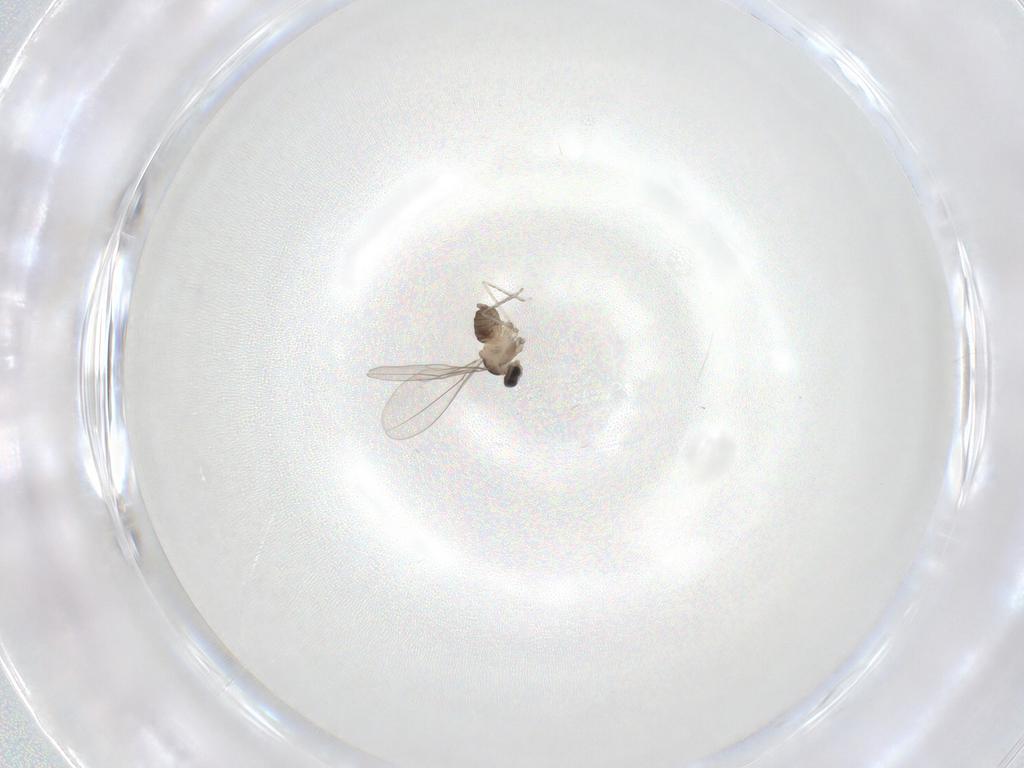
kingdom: Animalia
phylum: Arthropoda
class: Insecta
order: Diptera
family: Cecidomyiidae
